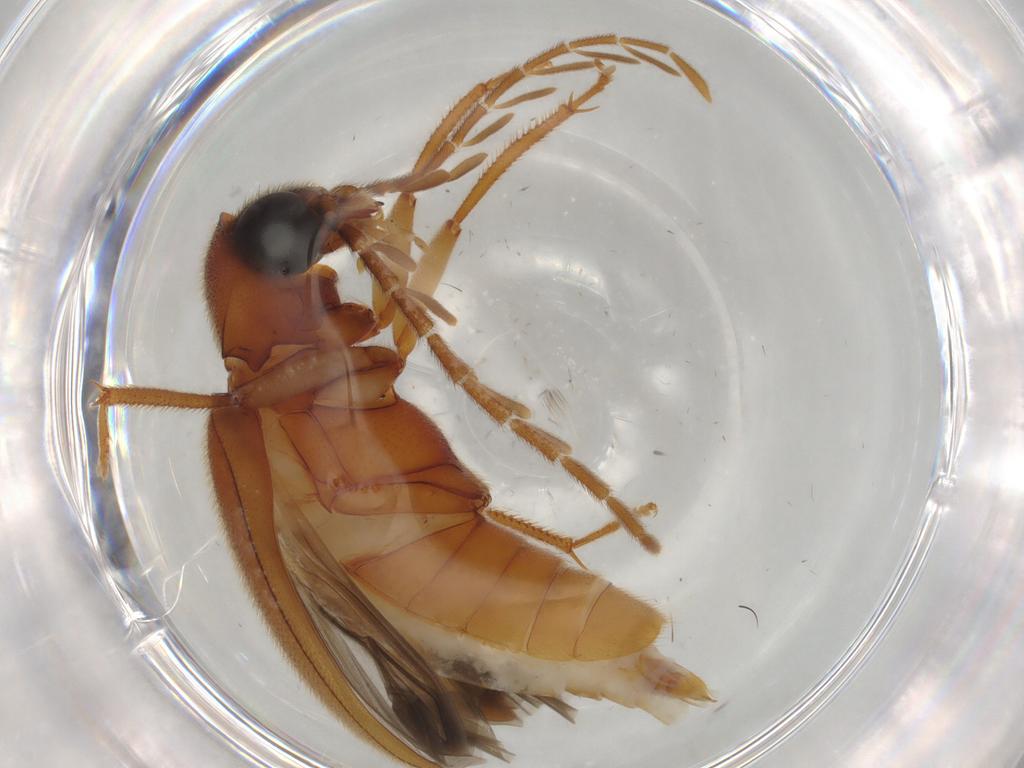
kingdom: Animalia
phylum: Arthropoda
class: Insecta
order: Coleoptera
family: Ptilodactylidae
